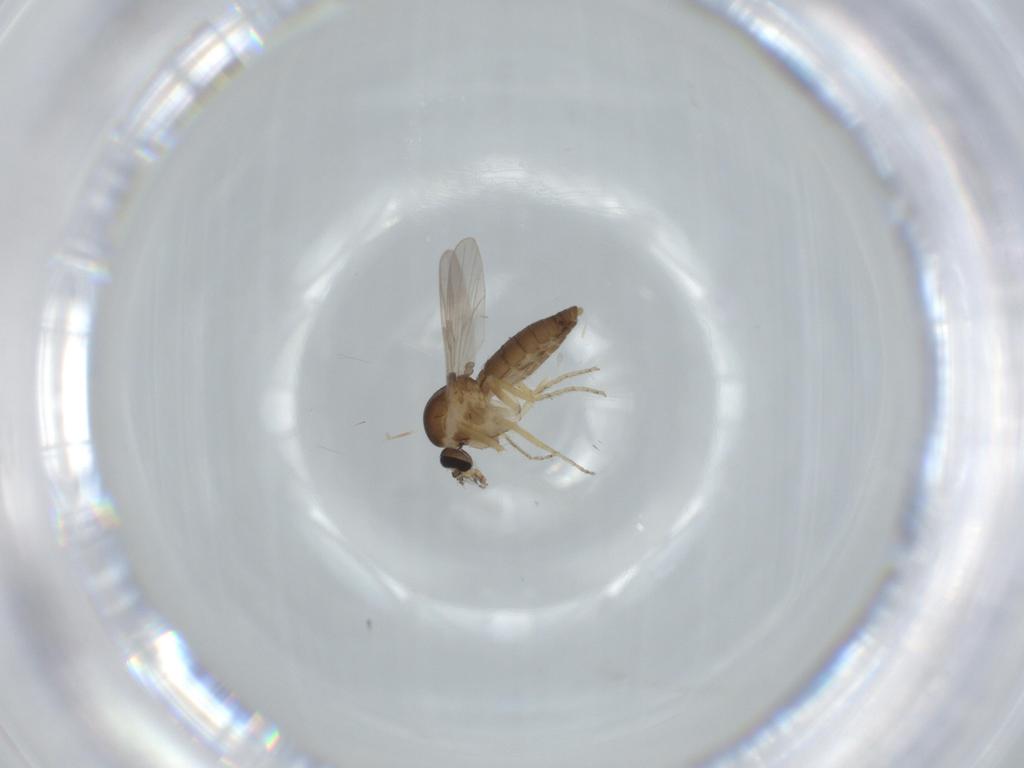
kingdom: Animalia
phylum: Arthropoda
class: Insecta
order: Diptera
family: Ceratopogonidae
